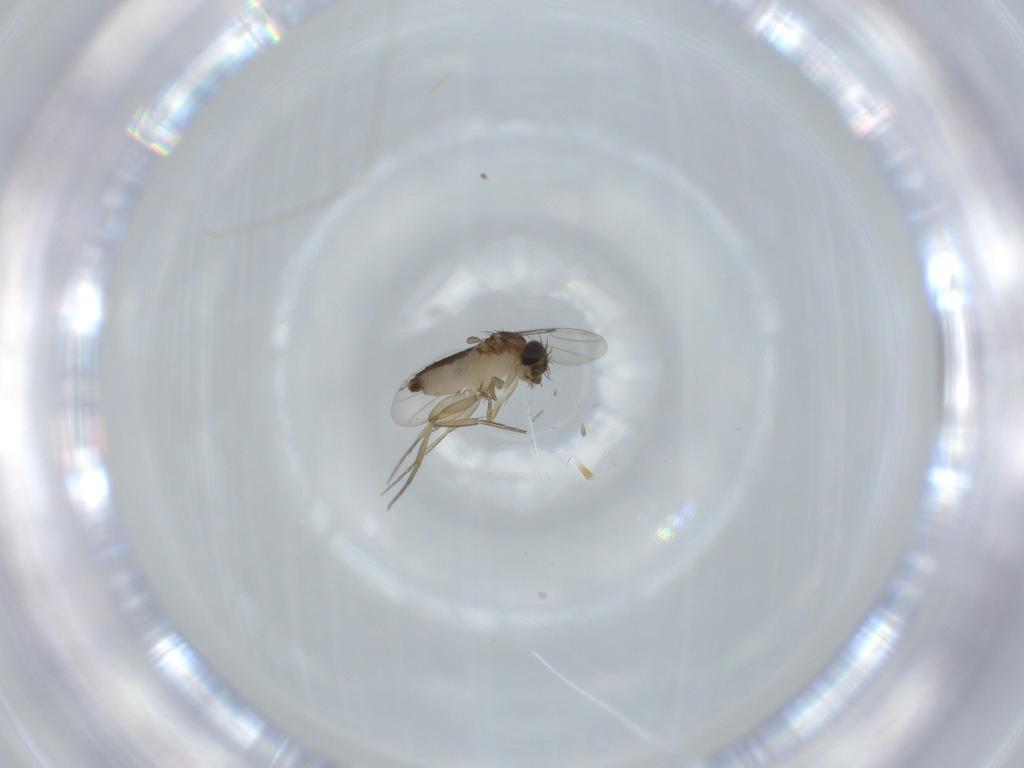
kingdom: Animalia
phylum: Arthropoda
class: Insecta
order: Diptera
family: Phoridae
